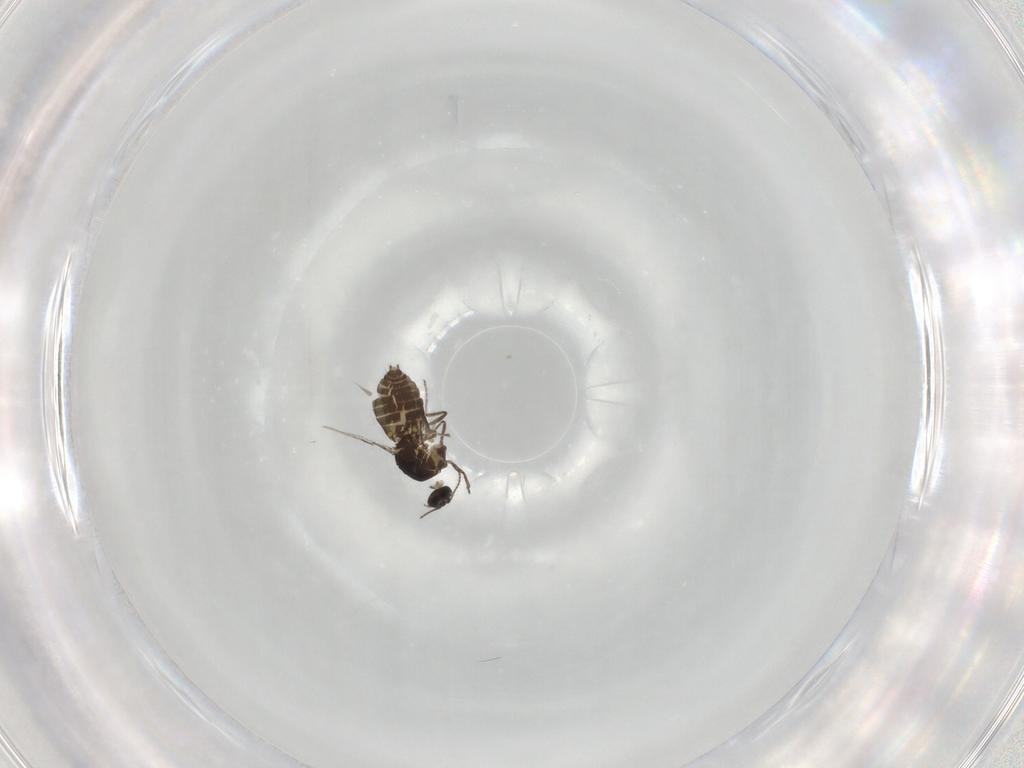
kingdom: Animalia
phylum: Arthropoda
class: Insecta
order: Diptera
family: Ceratopogonidae
